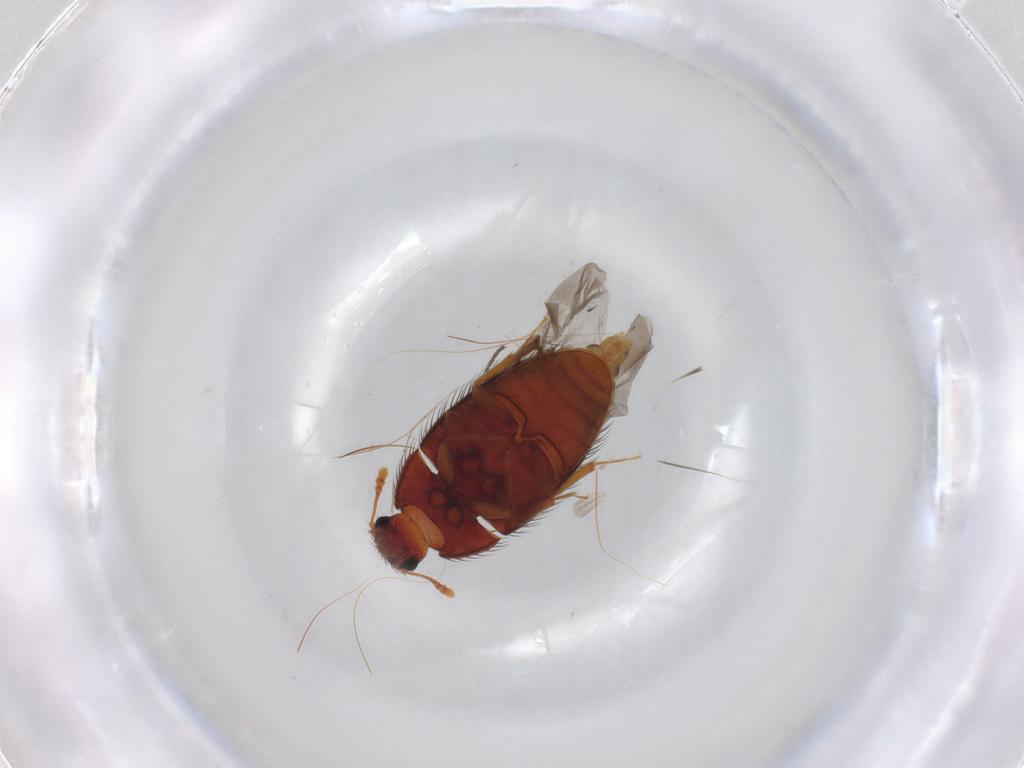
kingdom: Animalia
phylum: Arthropoda
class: Insecta
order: Coleoptera
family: Biphyllidae
